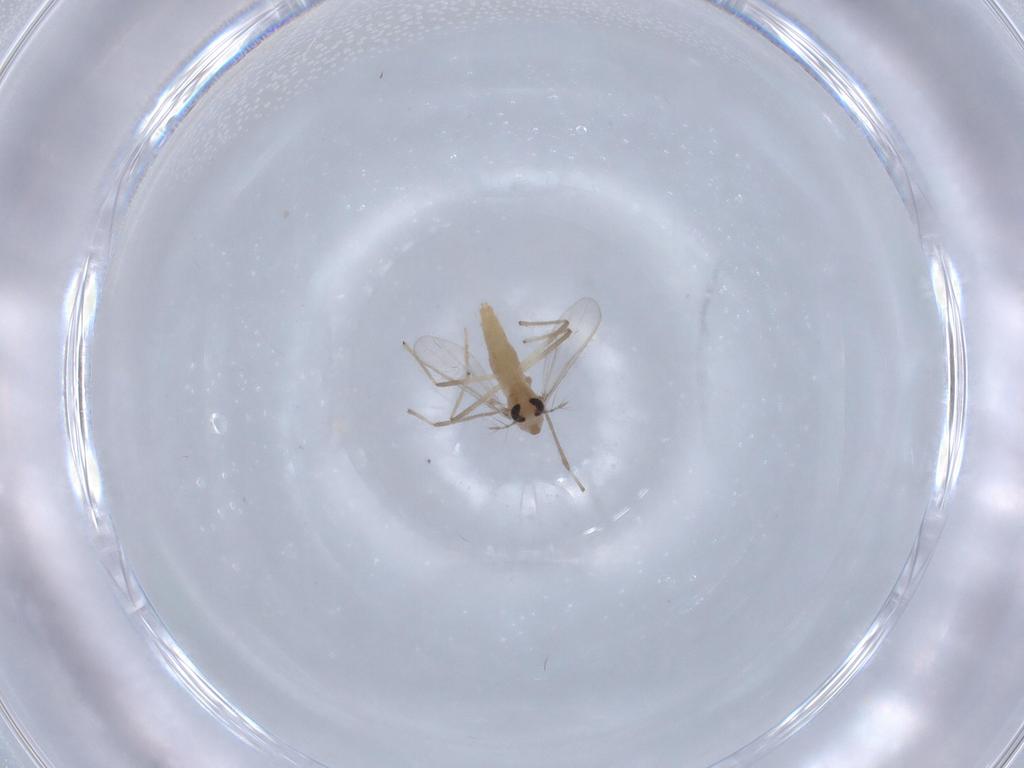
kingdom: Animalia
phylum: Arthropoda
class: Insecta
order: Diptera
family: Chironomidae
